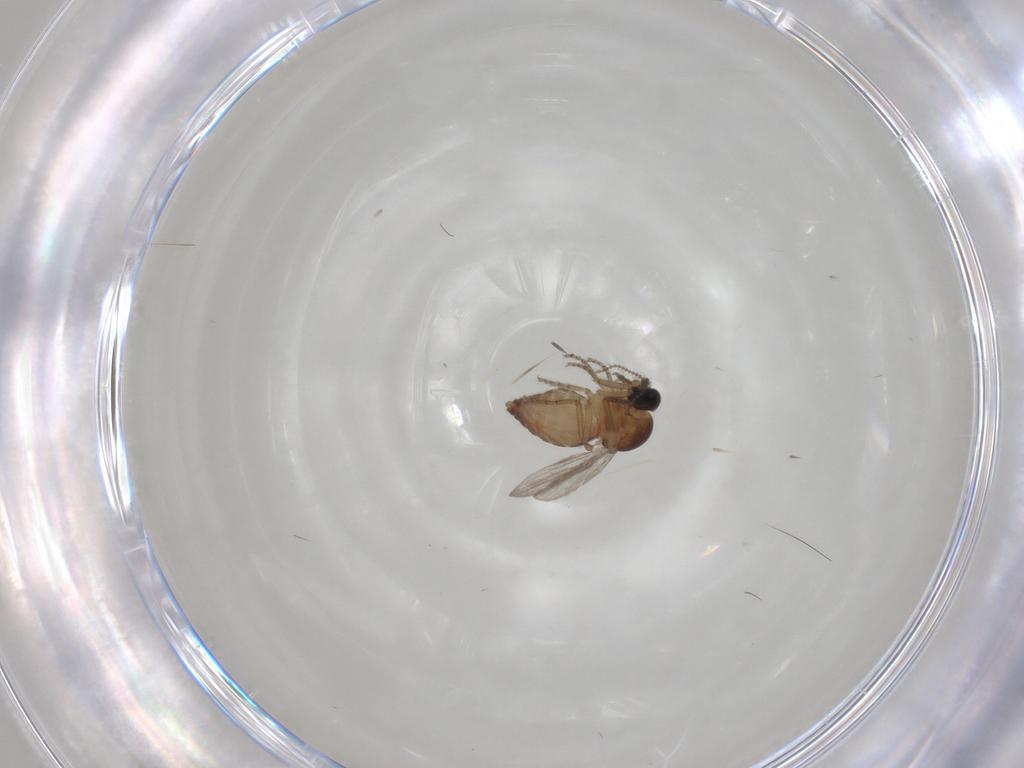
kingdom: Animalia
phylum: Arthropoda
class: Insecta
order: Diptera
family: Ceratopogonidae
